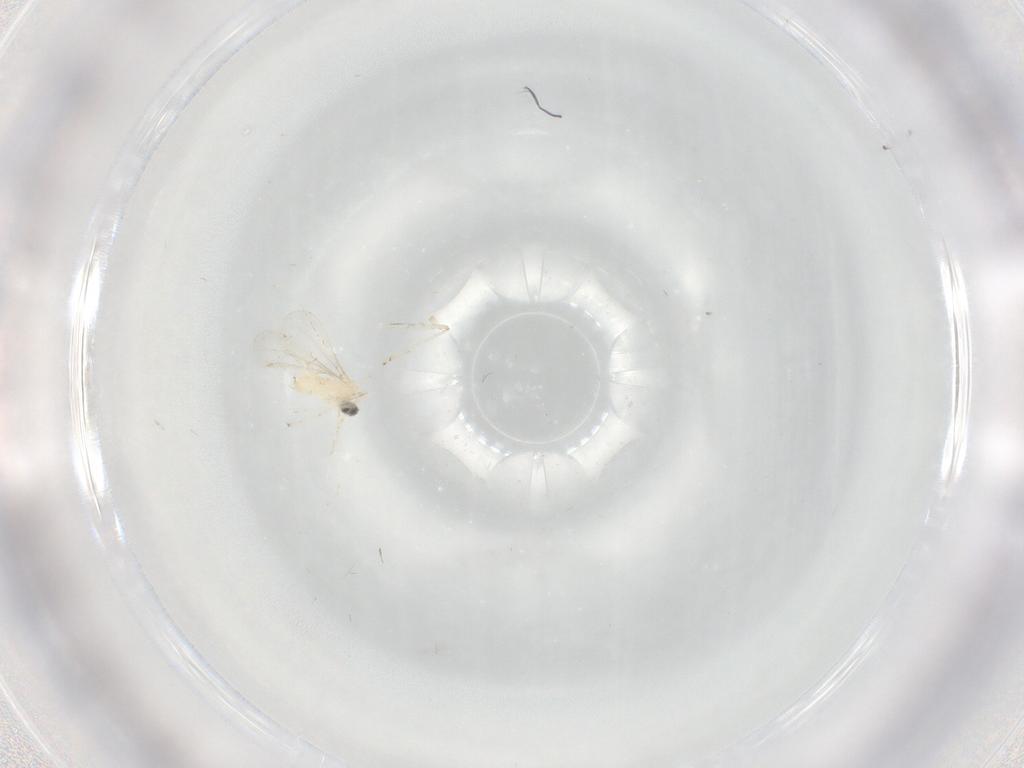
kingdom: Animalia
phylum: Arthropoda
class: Insecta
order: Diptera
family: Cecidomyiidae
